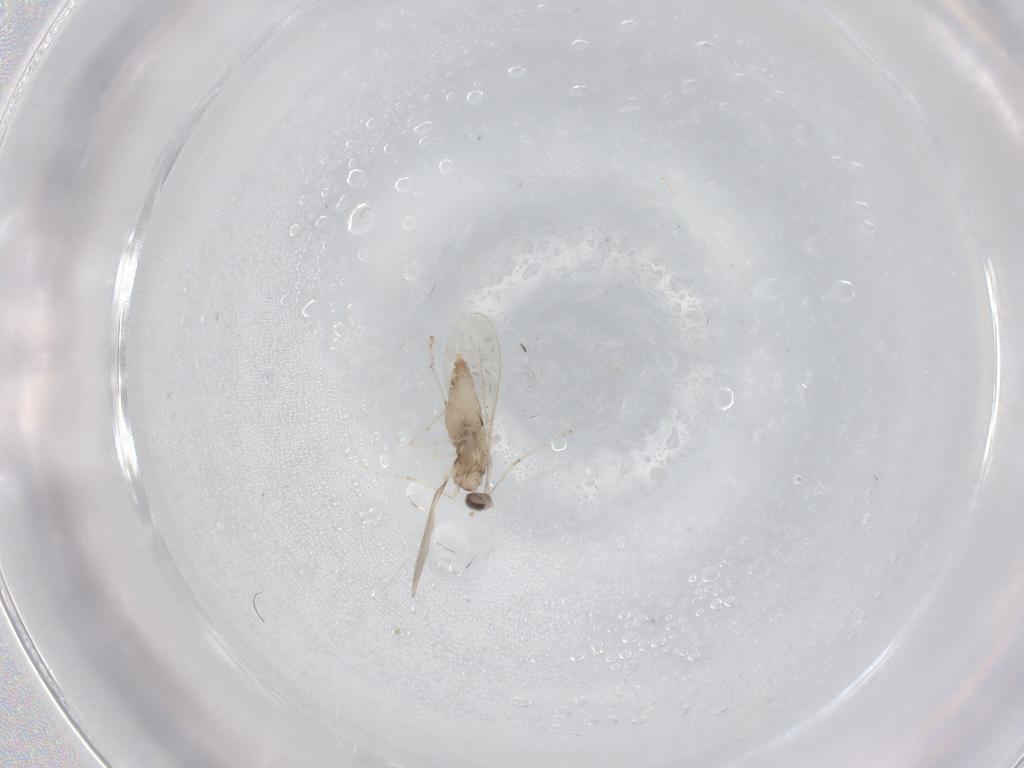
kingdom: Animalia
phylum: Arthropoda
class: Insecta
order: Diptera
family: Cecidomyiidae
